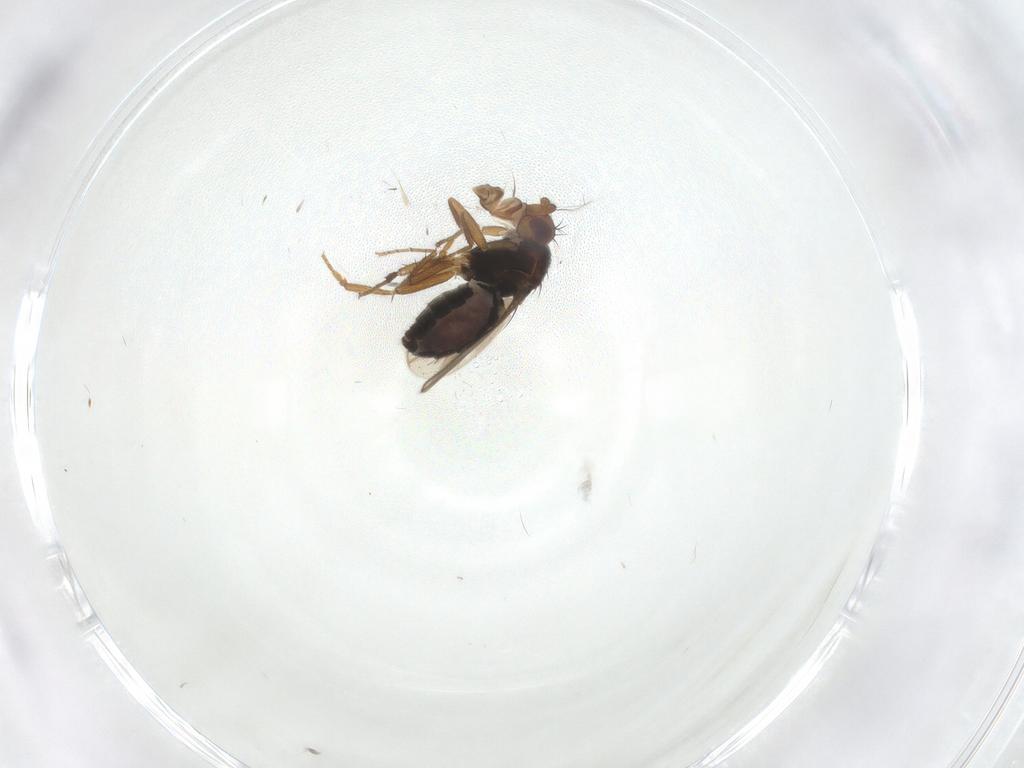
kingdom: Animalia
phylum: Arthropoda
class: Insecta
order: Diptera
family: Sphaeroceridae
